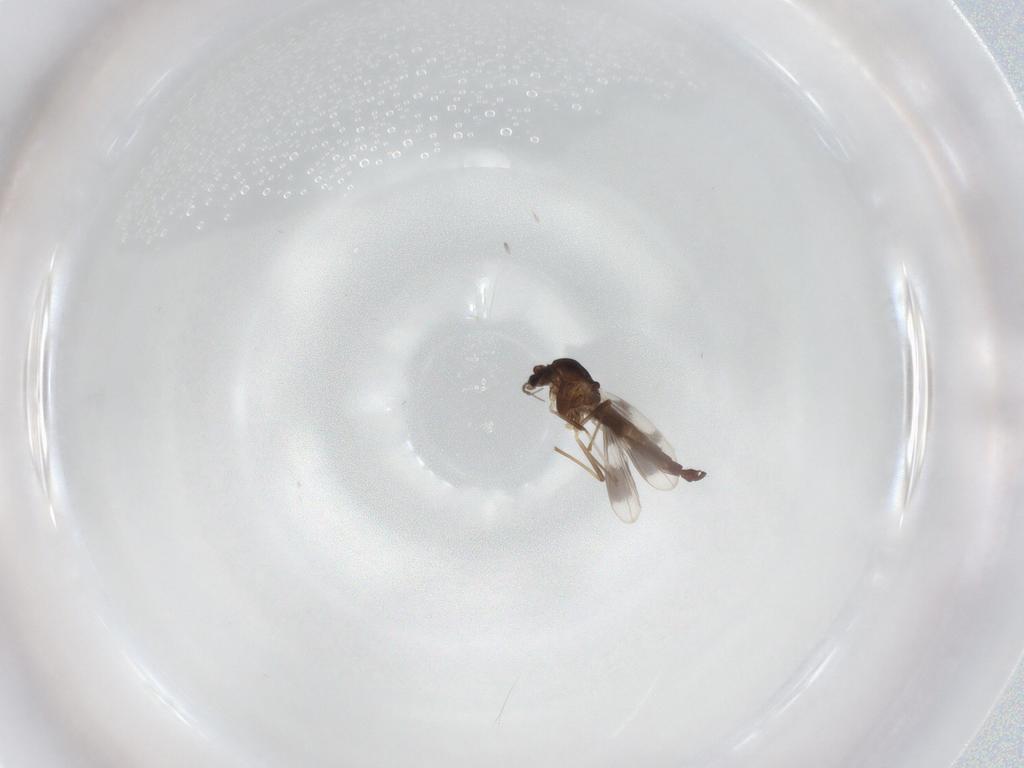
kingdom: Animalia
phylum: Arthropoda
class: Insecta
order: Diptera
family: Chironomidae
